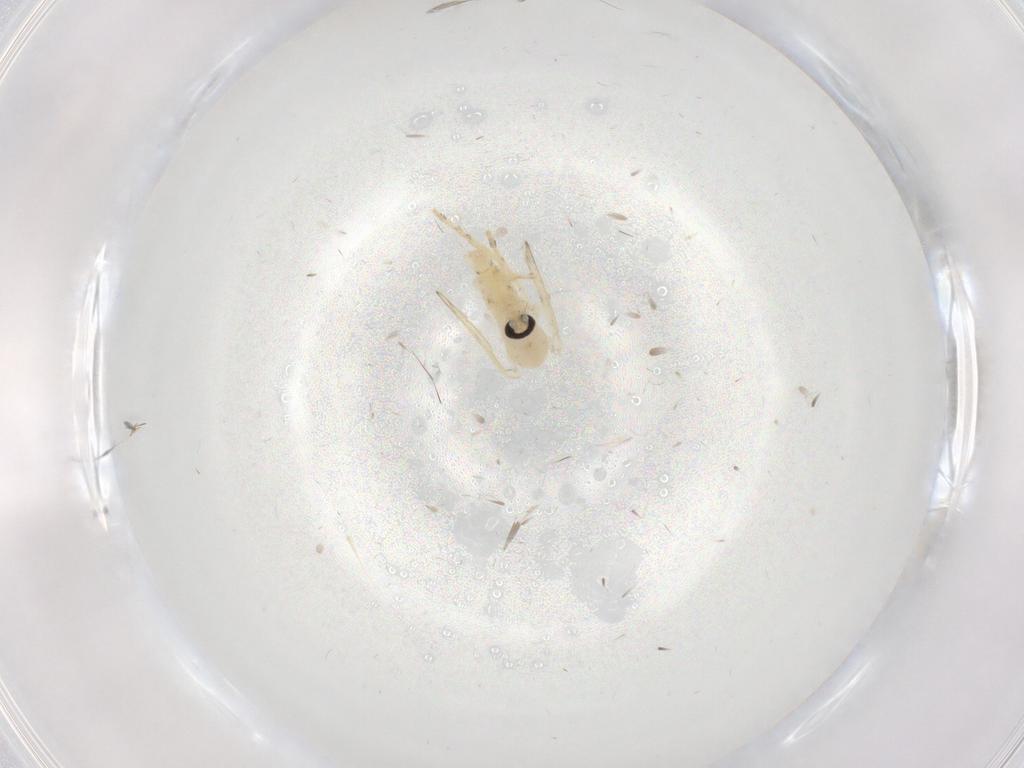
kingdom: Animalia
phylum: Arthropoda
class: Insecta
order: Diptera
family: Psychodidae
